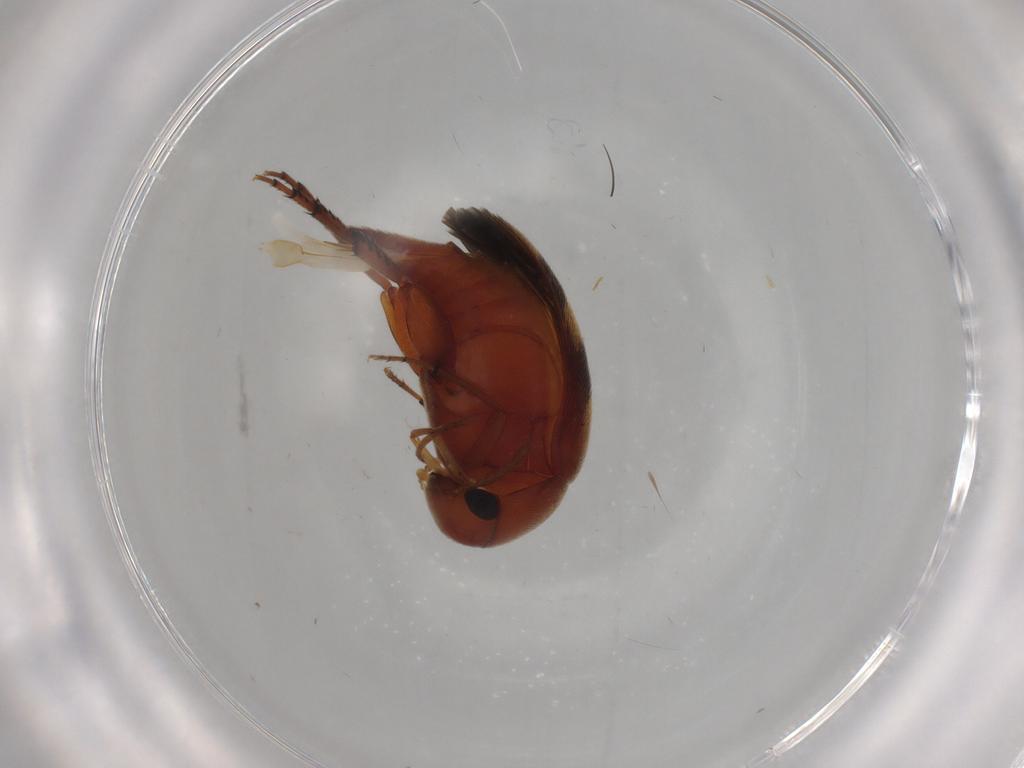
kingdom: Animalia
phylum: Arthropoda
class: Insecta
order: Coleoptera
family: Mordellidae
